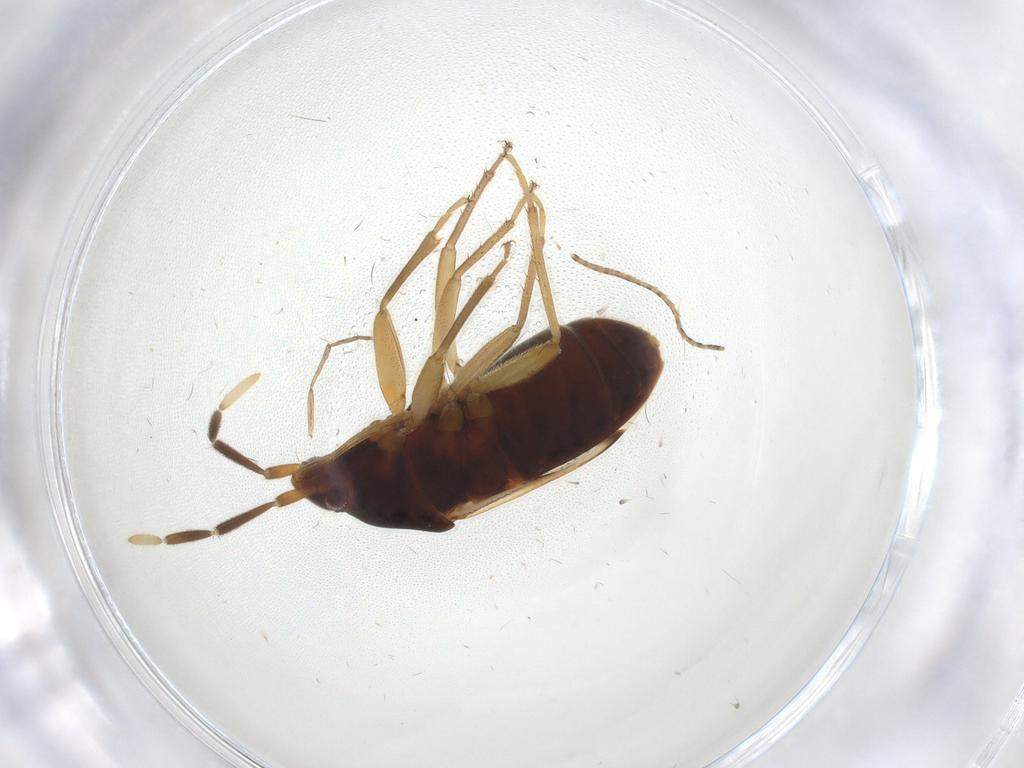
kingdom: Animalia
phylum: Arthropoda
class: Insecta
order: Hemiptera
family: Rhyparochromidae
